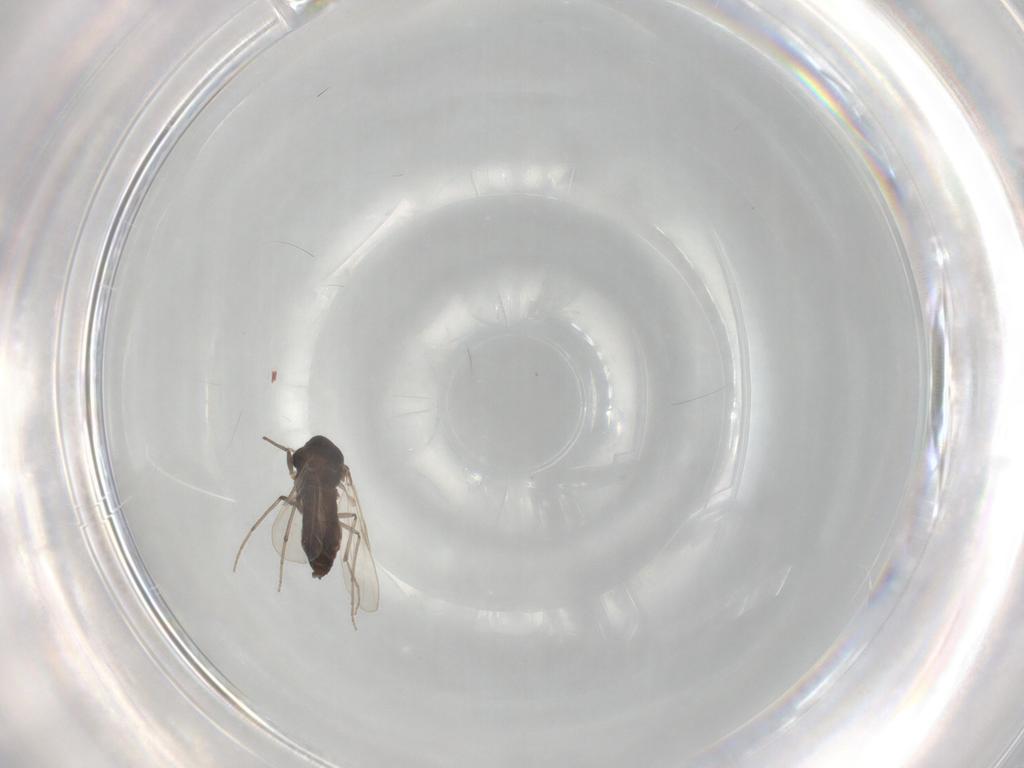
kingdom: Animalia
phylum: Arthropoda
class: Insecta
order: Diptera
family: Chironomidae
